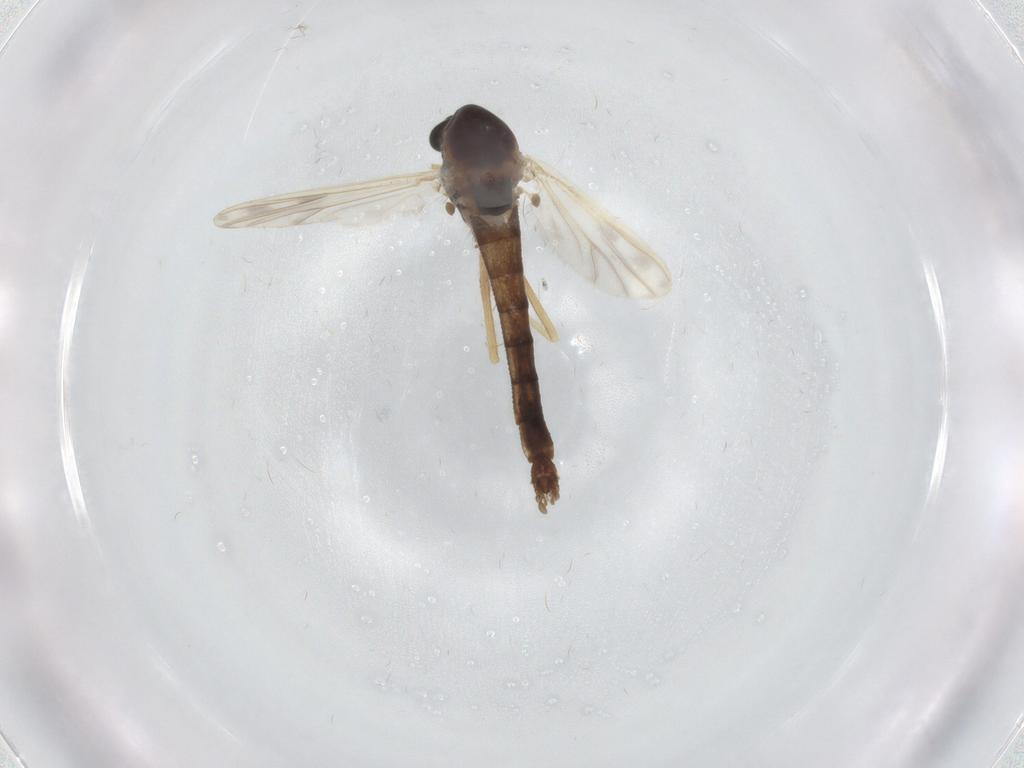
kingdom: Animalia
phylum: Arthropoda
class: Insecta
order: Diptera
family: Chironomidae
